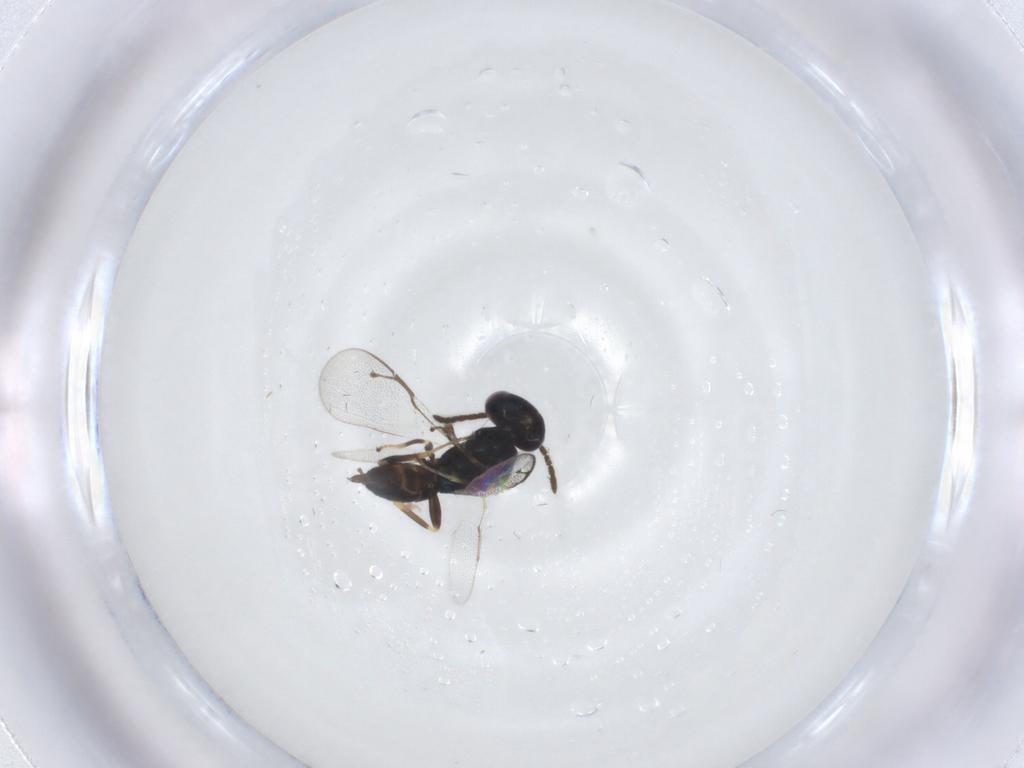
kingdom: Animalia
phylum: Arthropoda
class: Insecta
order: Hymenoptera
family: Pteromalidae
